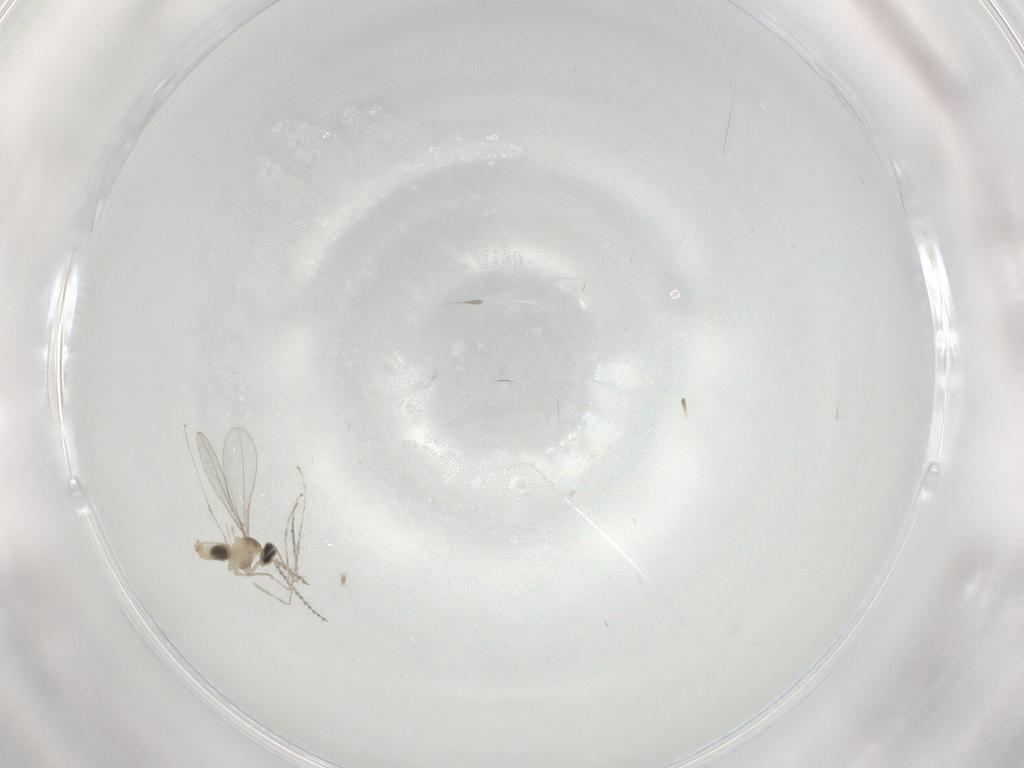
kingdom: Animalia
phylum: Arthropoda
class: Insecta
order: Diptera
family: Cecidomyiidae
